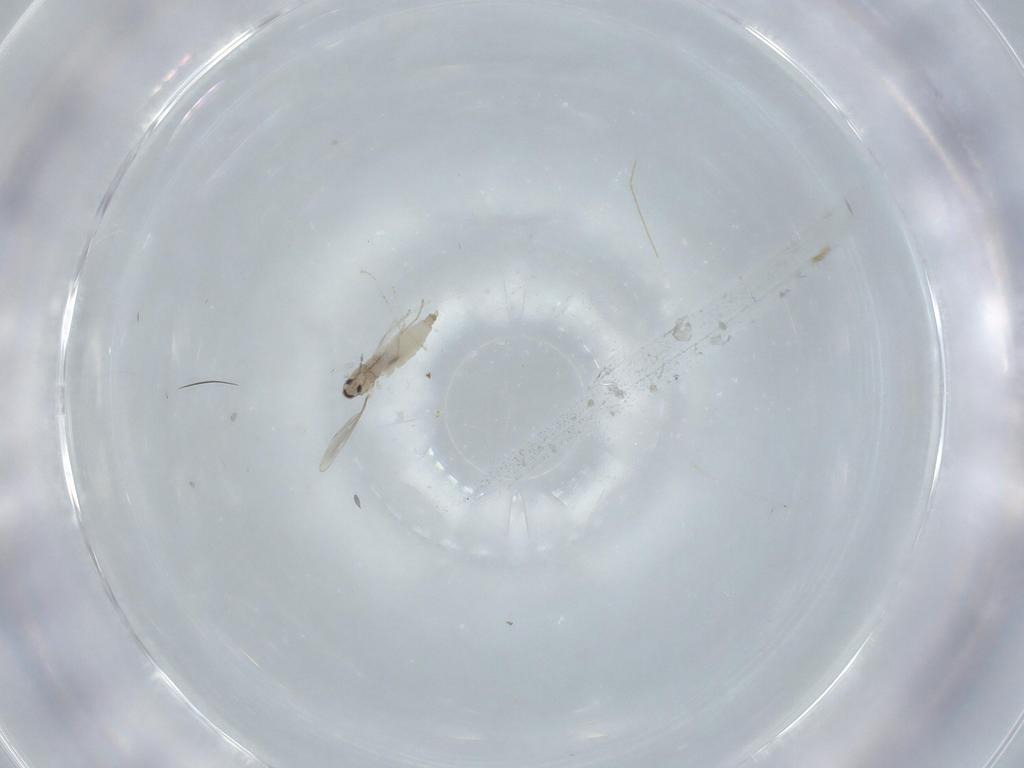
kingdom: Animalia
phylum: Arthropoda
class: Insecta
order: Diptera
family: Cecidomyiidae
